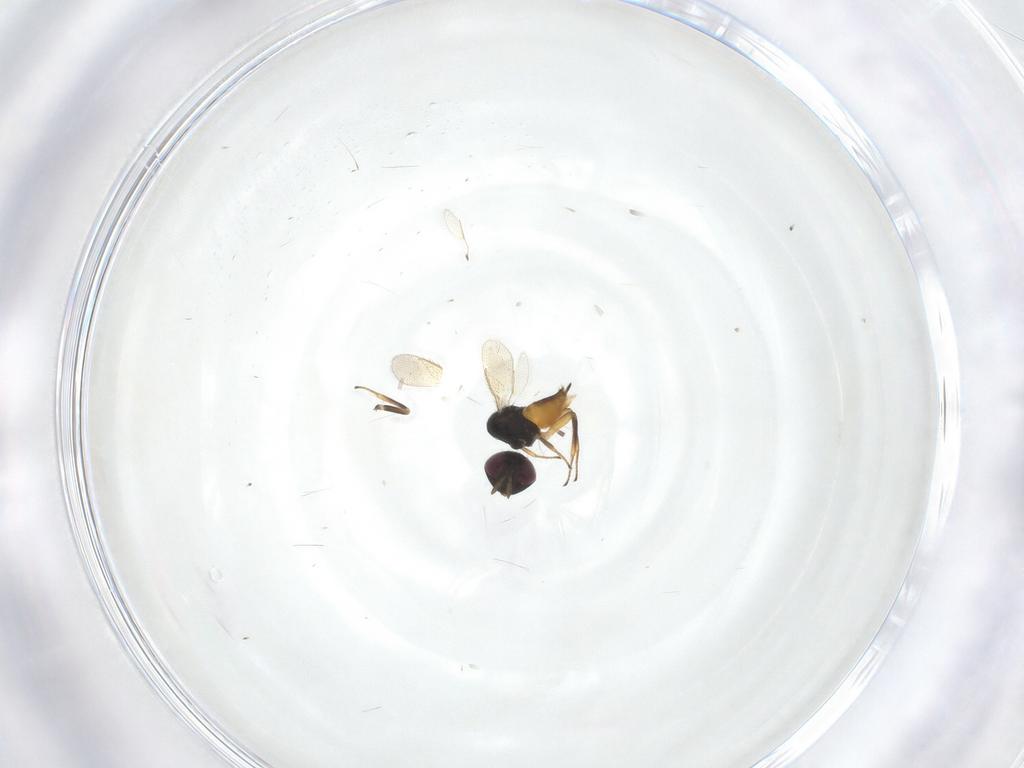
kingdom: Animalia
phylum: Arthropoda
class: Insecta
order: Hymenoptera
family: Aphelinidae
